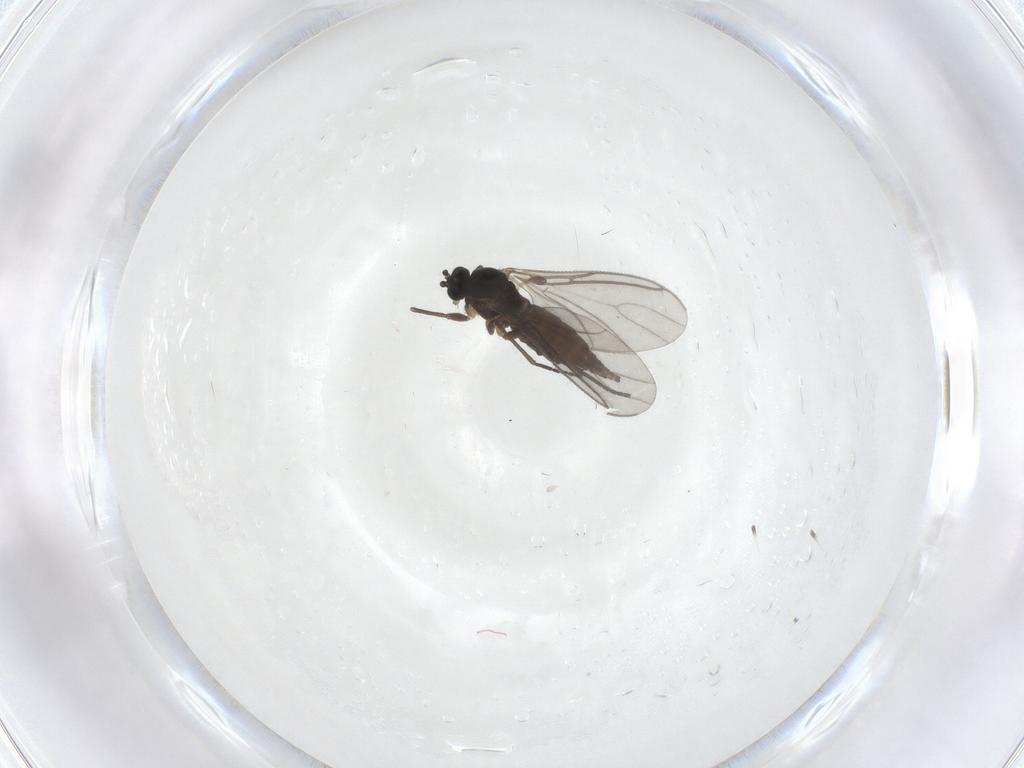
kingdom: Animalia
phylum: Arthropoda
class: Insecta
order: Diptera
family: Sciaridae
